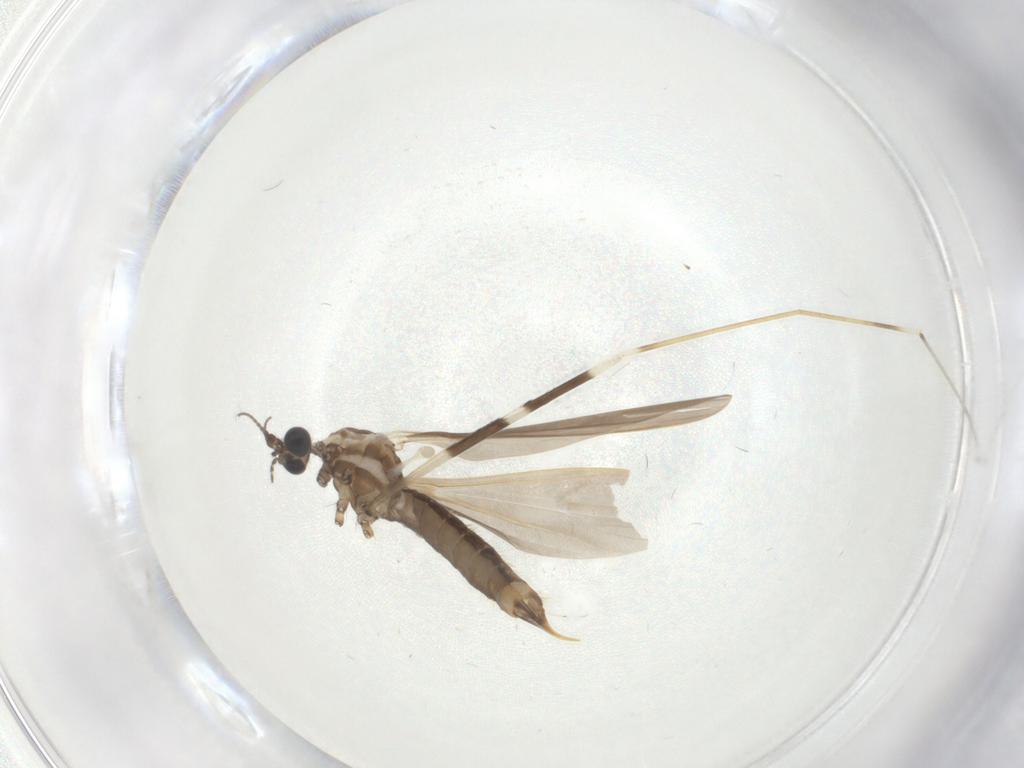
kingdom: Animalia
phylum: Arthropoda
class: Insecta
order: Diptera
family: Limoniidae
